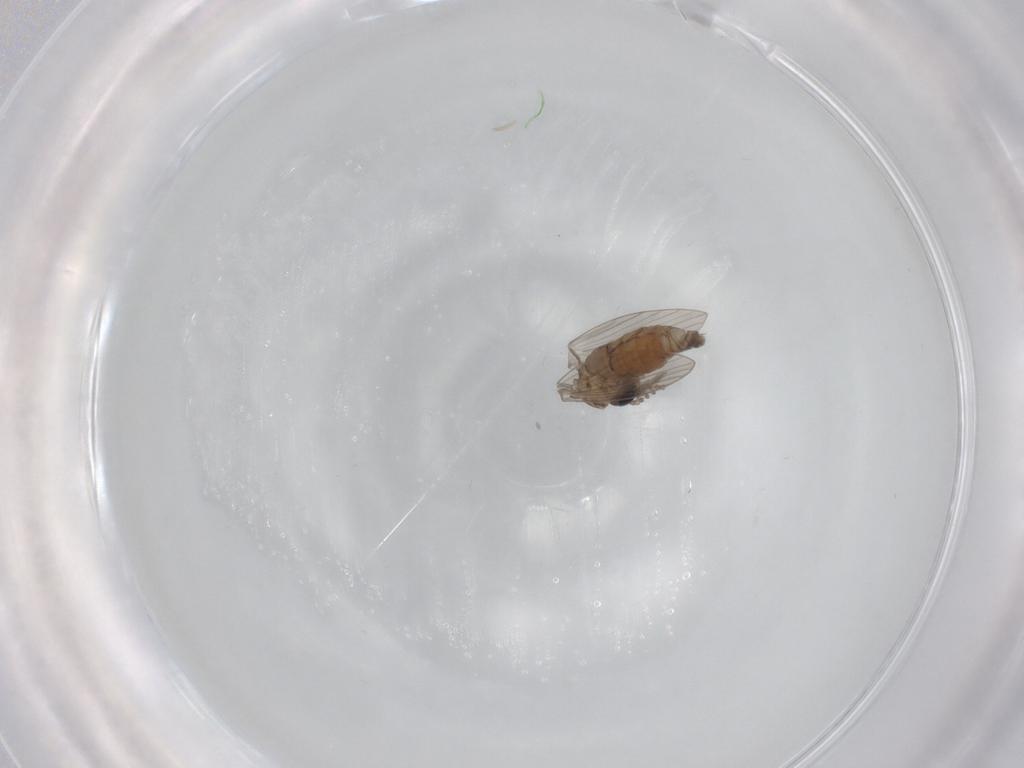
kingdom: Animalia
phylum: Arthropoda
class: Insecta
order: Diptera
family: Psychodidae
